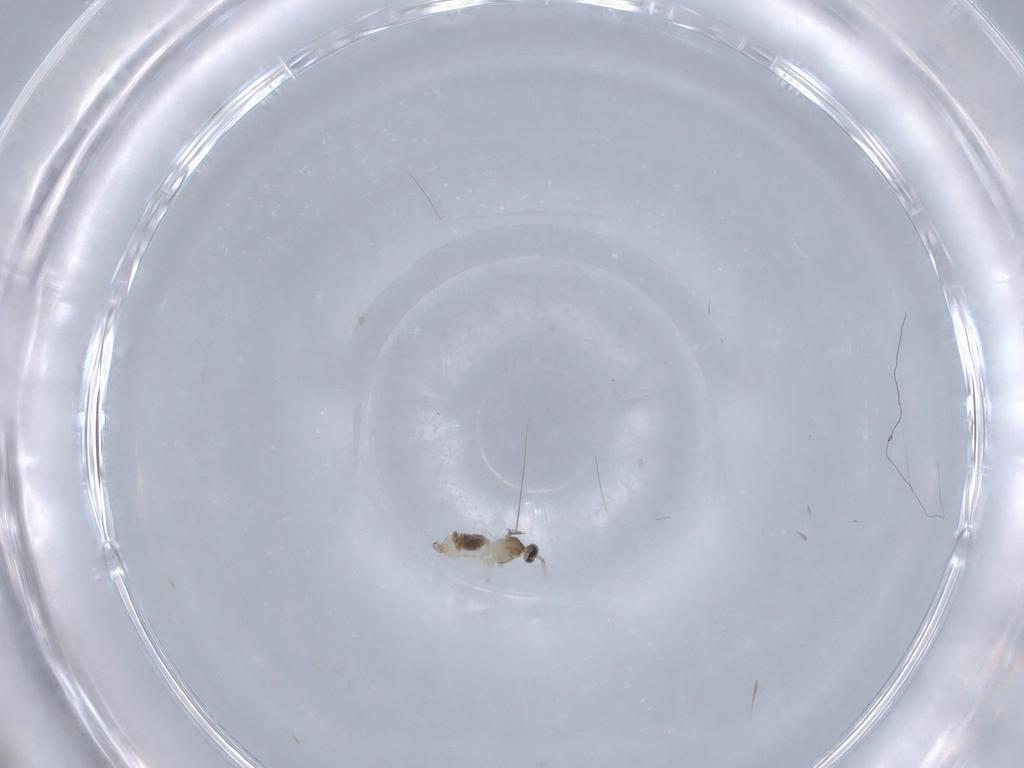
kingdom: Animalia
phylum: Arthropoda
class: Insecta
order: Diptera
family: Cecidomyiidae
